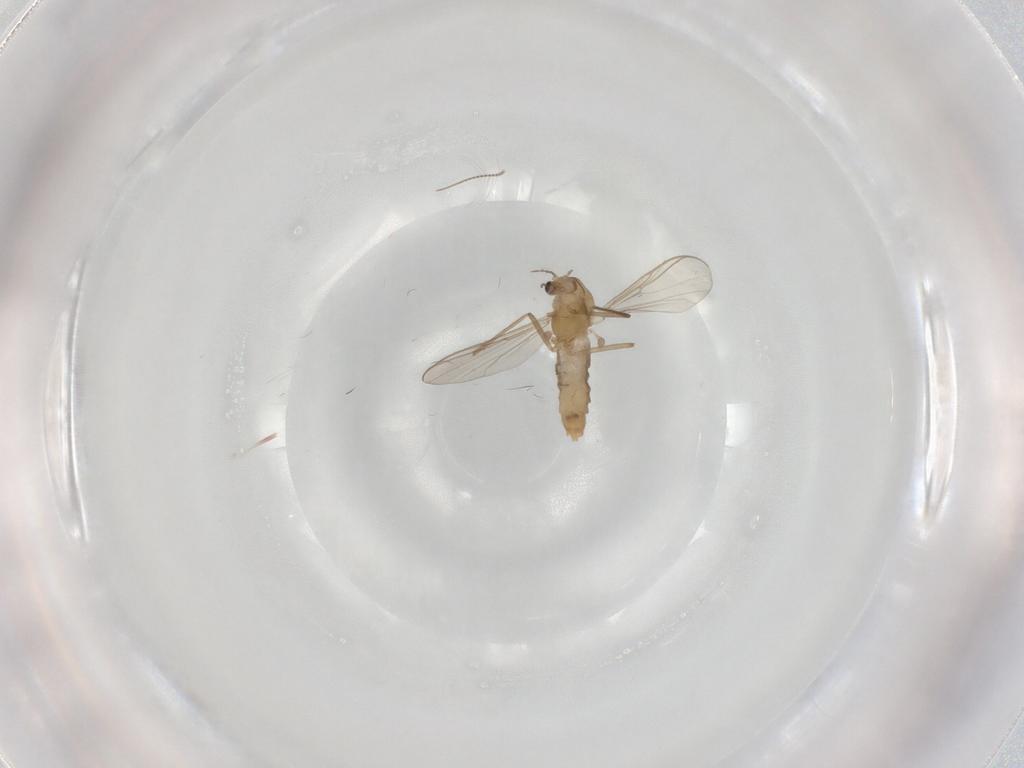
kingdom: Animalia
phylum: Arthropoda
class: Insecta
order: Diptera
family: Chironomidae
